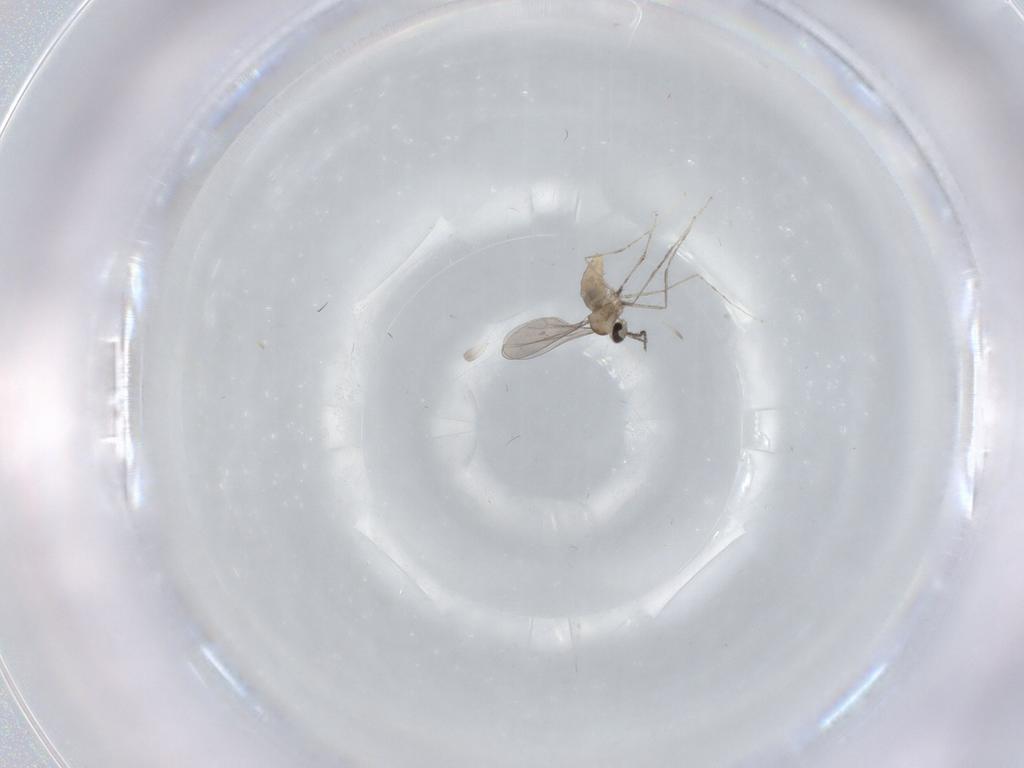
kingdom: Animalia
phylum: Arthropoda
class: Insecta
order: Diptera
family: Cecidomyiidae
